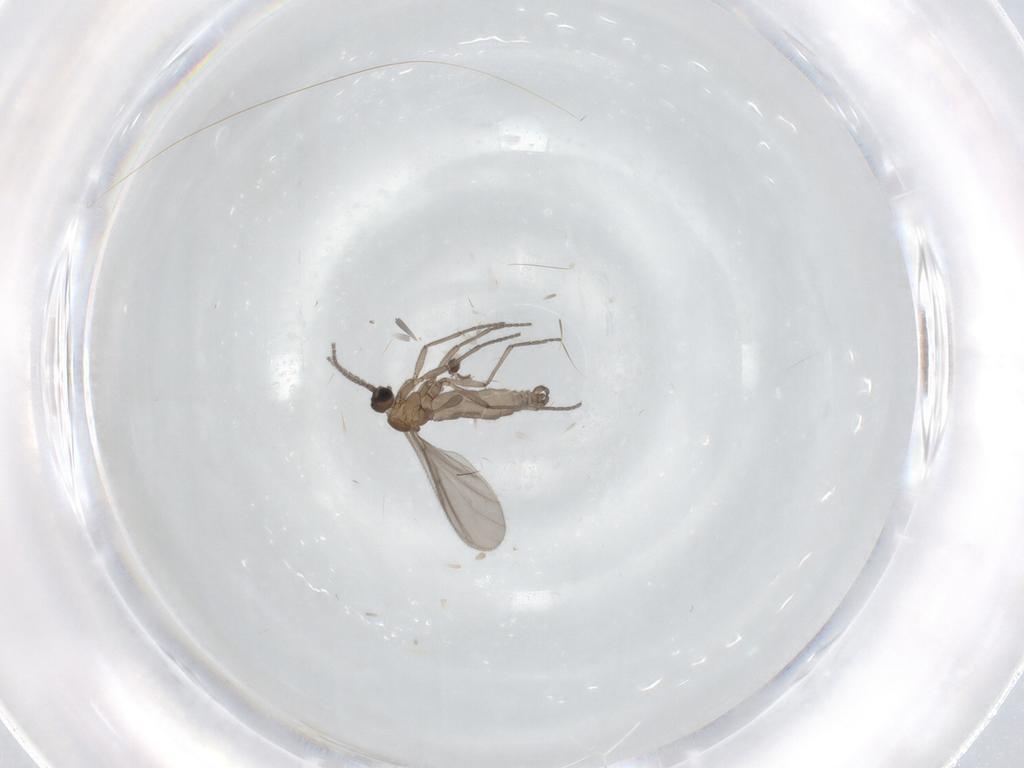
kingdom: Animalia
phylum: Arthropoda
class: Insecta
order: Diptera
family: Sciaridae
